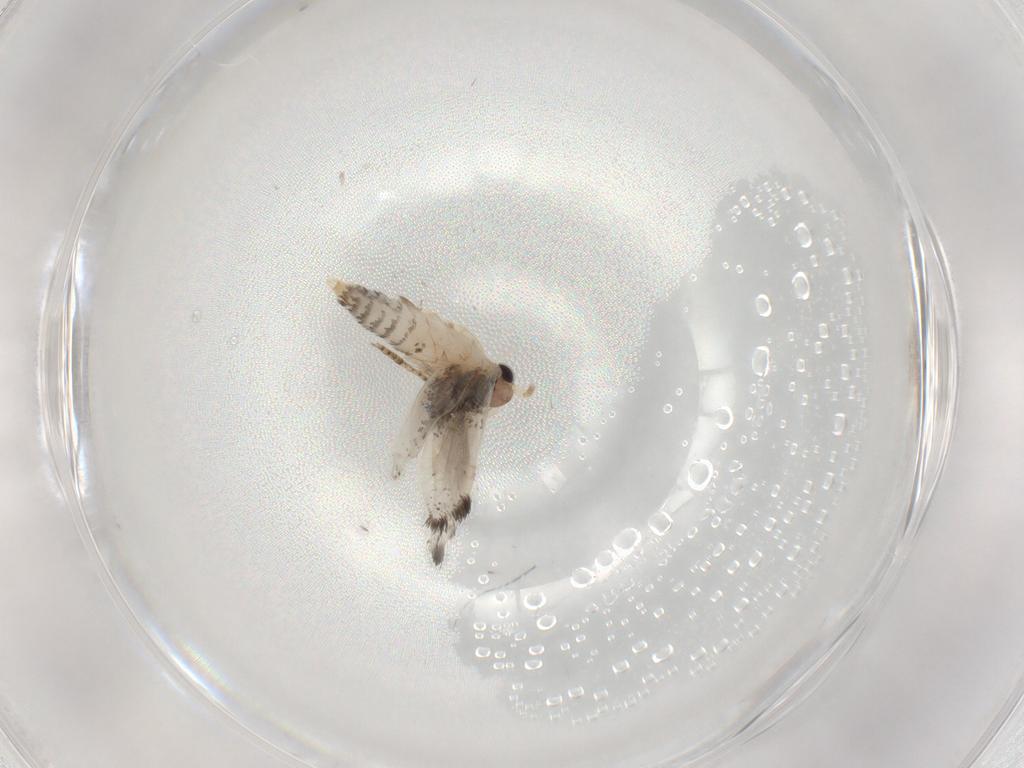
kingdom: Animalia
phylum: Arthropoda
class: Insecta
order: Lepidoptera
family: Tineidae
